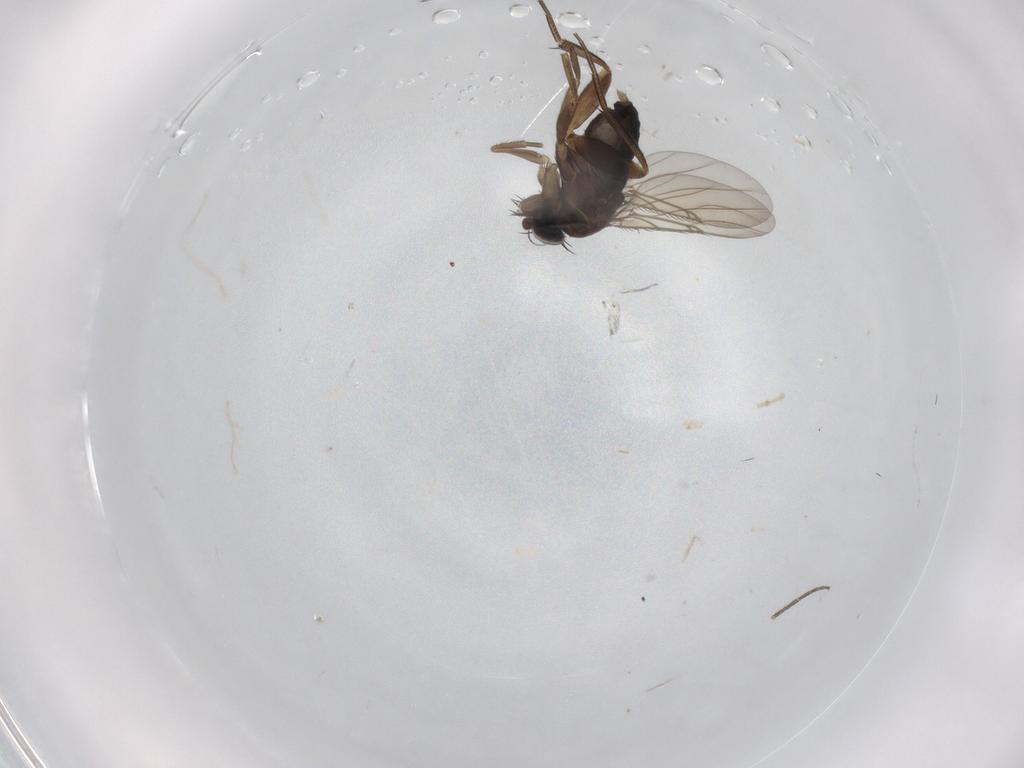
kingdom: Animalia
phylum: Arthropoda
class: Insecta
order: Diptera
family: Phoridae
